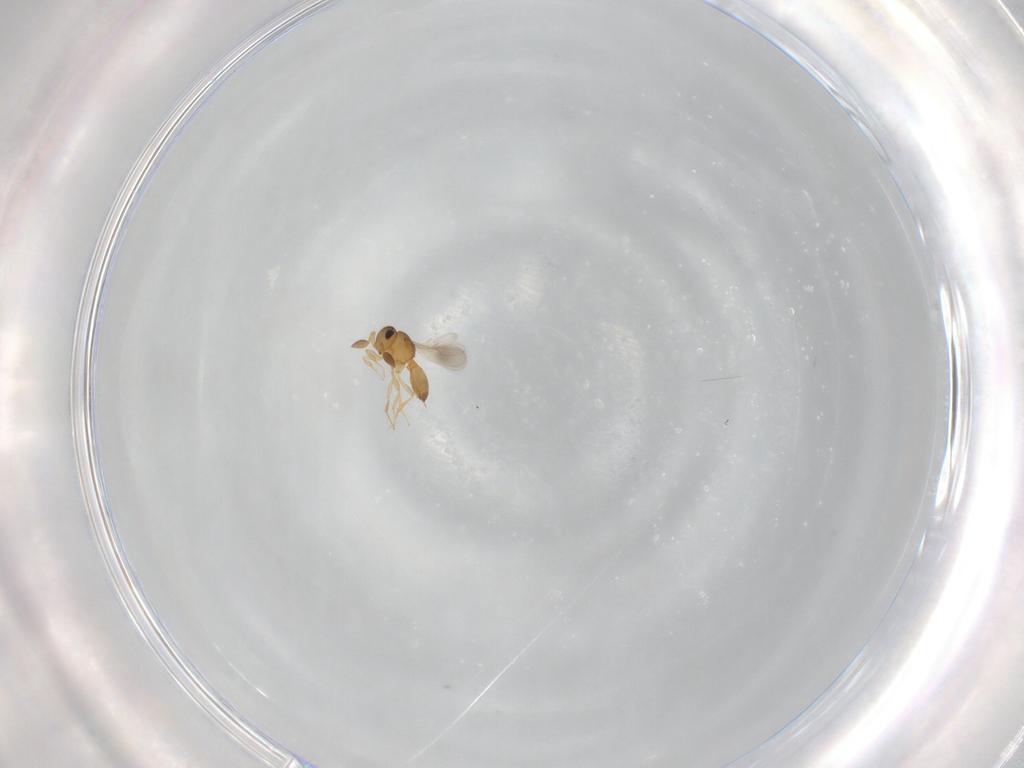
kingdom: Animalia
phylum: Arthropoda
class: Insecta
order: Hymenoptera
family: Scelionidae
